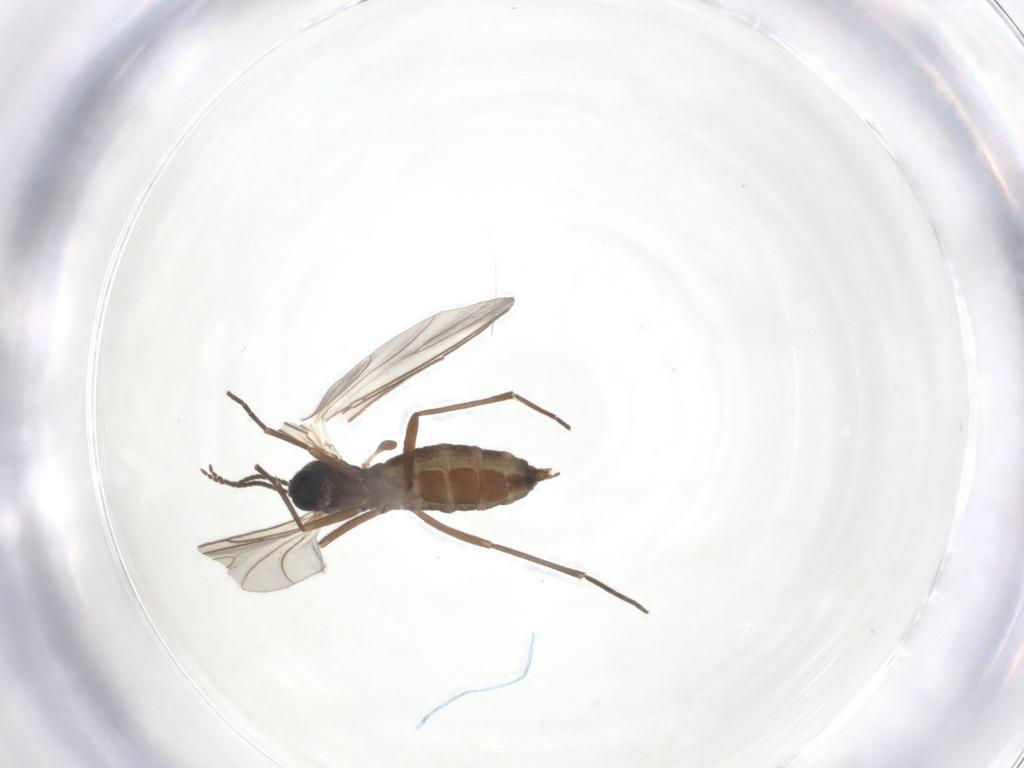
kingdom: Animalia
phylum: Arthropoda
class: Insecta
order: Diptera
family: Sciaridae
